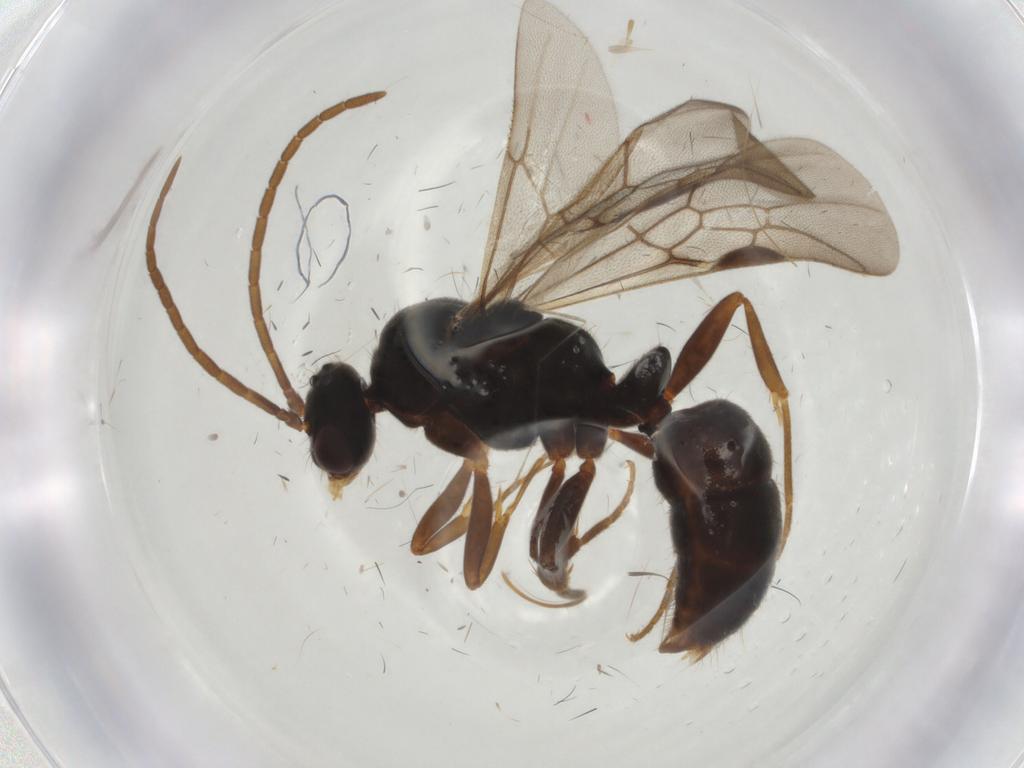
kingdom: Animalia
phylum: Arthropoda
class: Insecta
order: Hymenoptera
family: Formicidae
